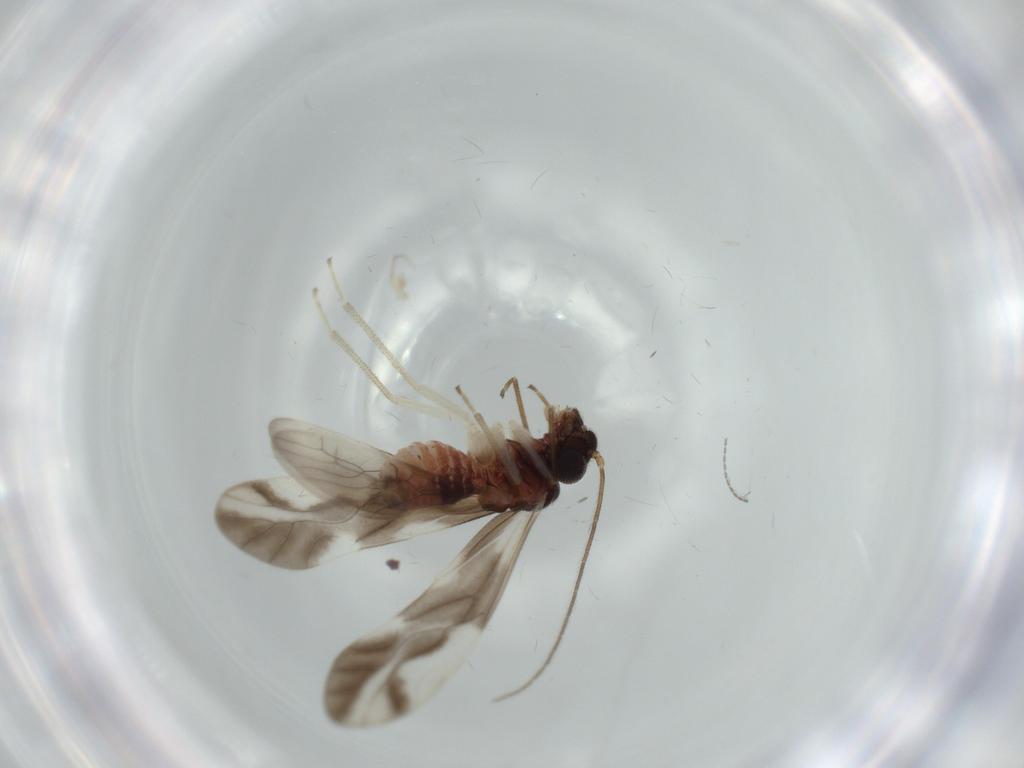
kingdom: Animalia
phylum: Arthropoda
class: Insecta
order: Psocodea
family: Caeciliusidae
